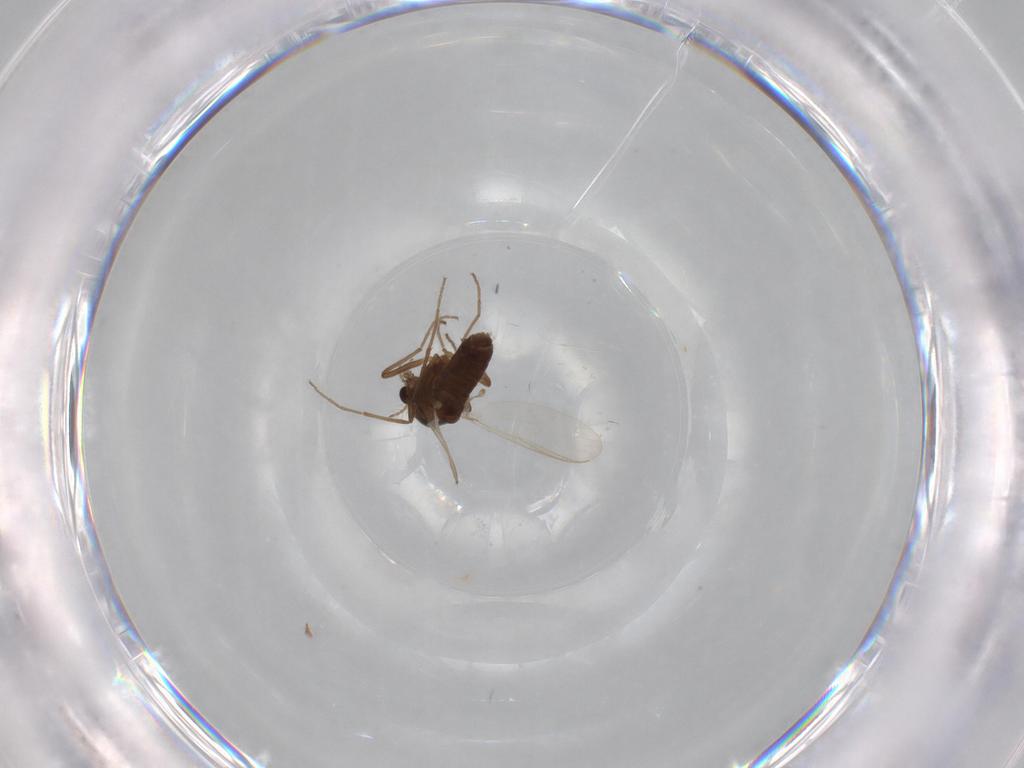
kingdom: Animalia
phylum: Arthropoda
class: Insecta
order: Diptera
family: Chironomidae
